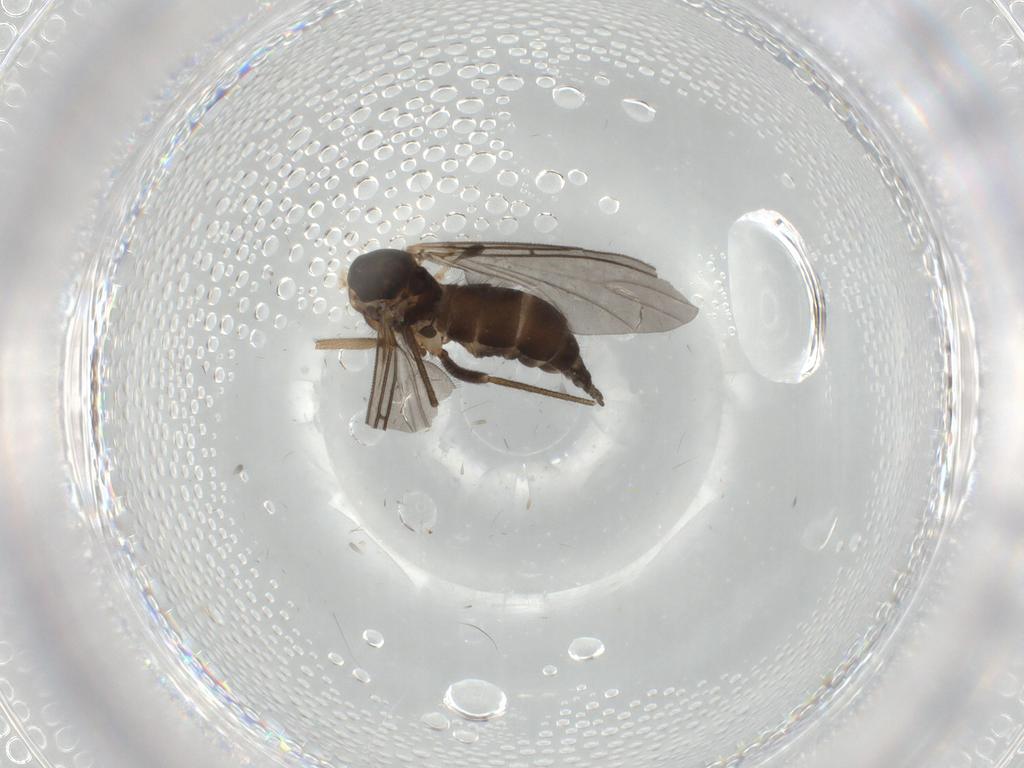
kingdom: Animalia
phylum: Arthropoda
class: Insecta
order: Diptera
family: Sciaridae
